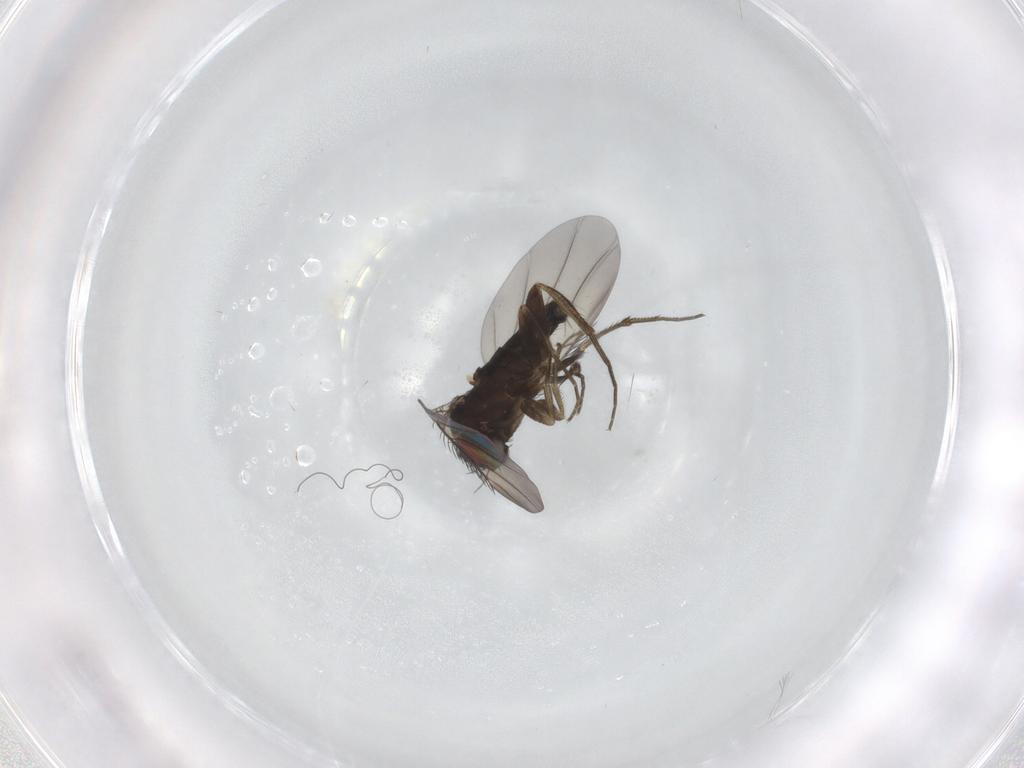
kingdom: Animalia
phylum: Arthropoda
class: Insecta
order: Diptera
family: Phoridae
